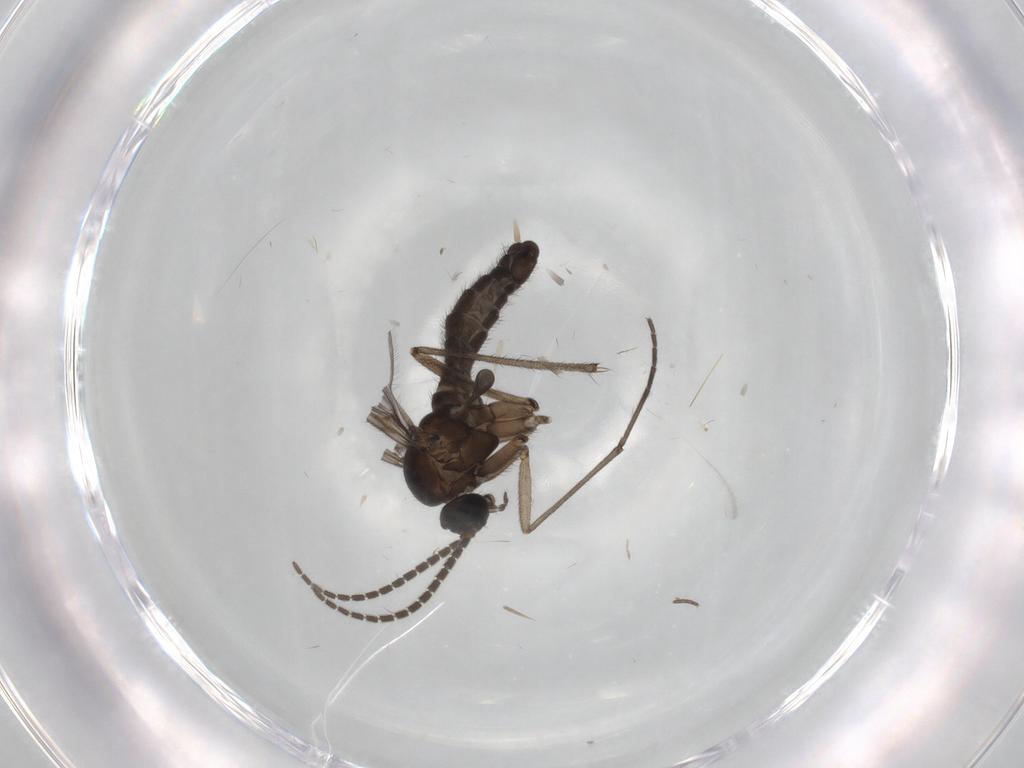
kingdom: Animalia
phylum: Arthropoda
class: Insecta
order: Diptera
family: Sciaridae
